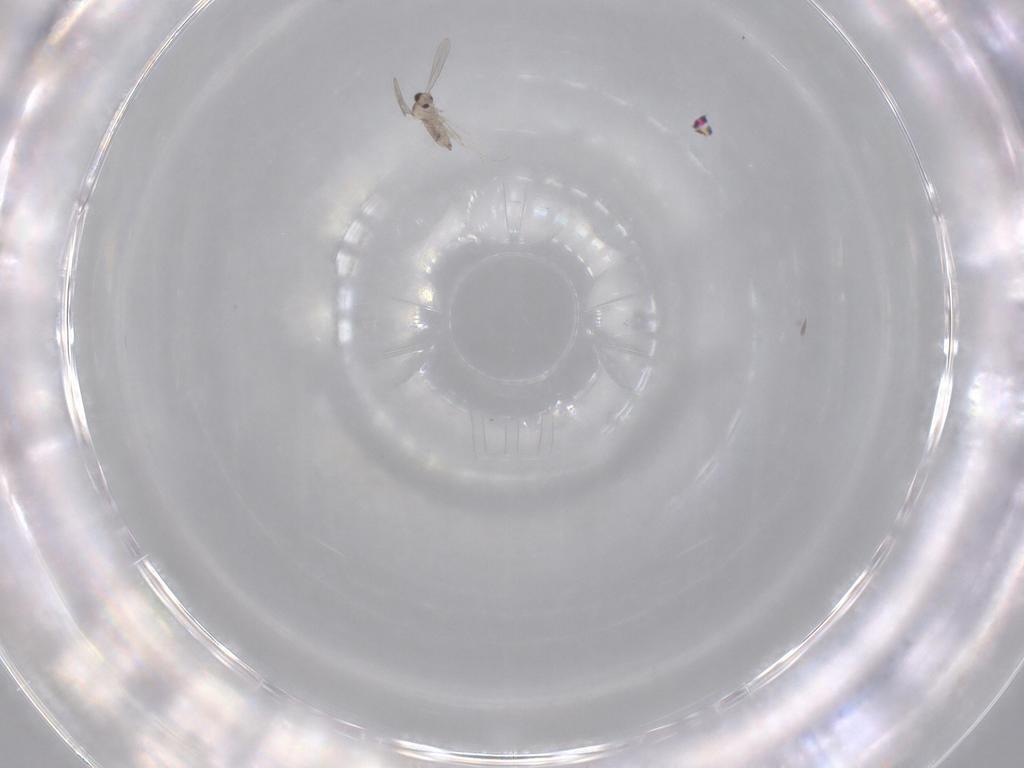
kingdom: Animalia
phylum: Arthropoda
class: Insecta
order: Diptera
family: Cecidomyiidae
